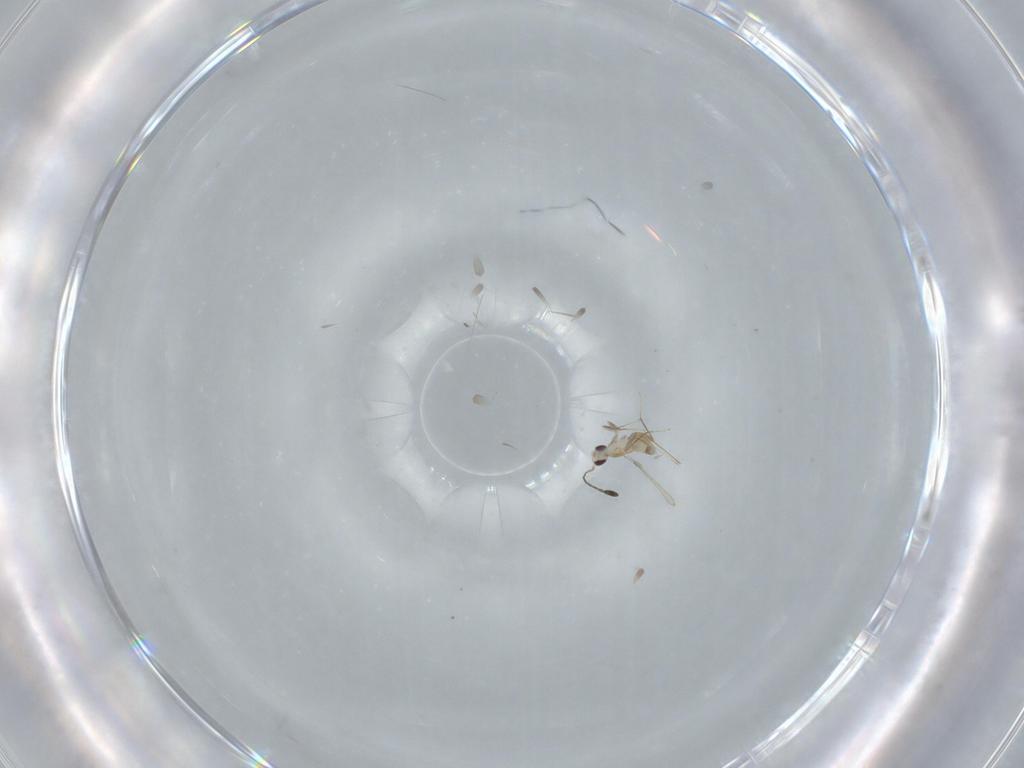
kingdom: Animalia
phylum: Arthropoda
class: Insecta
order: Hymenoptera
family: Mymaridae
